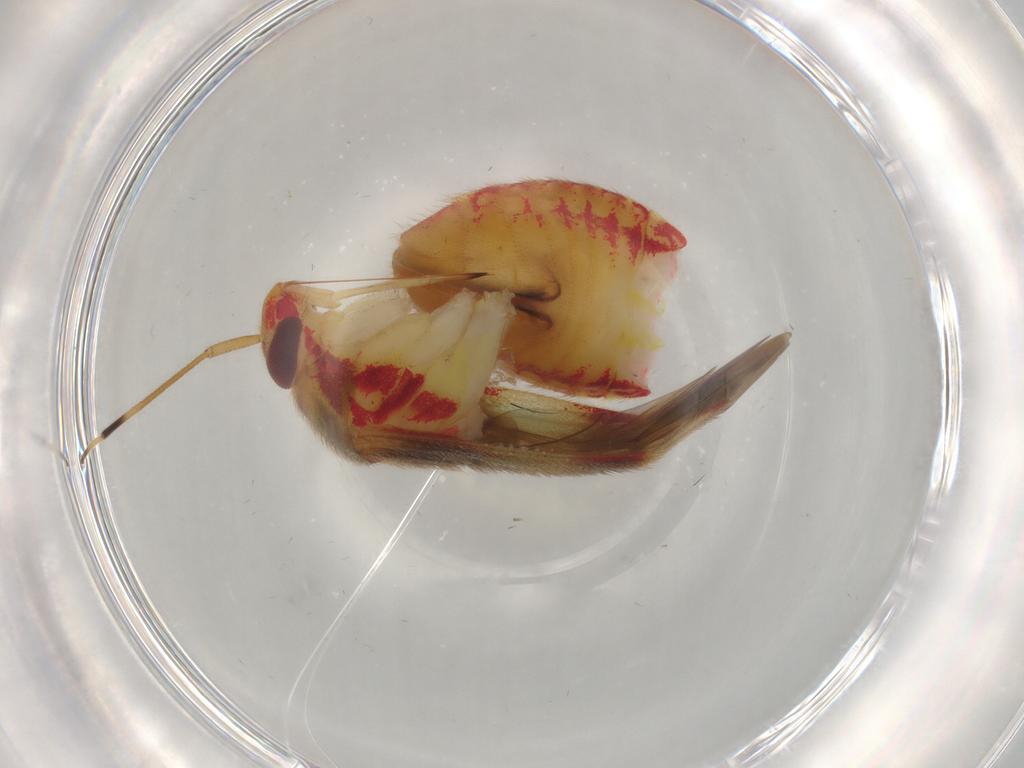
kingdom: Animalia
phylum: Arthropoda
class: Insecta
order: Hemiptera
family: Miridae
